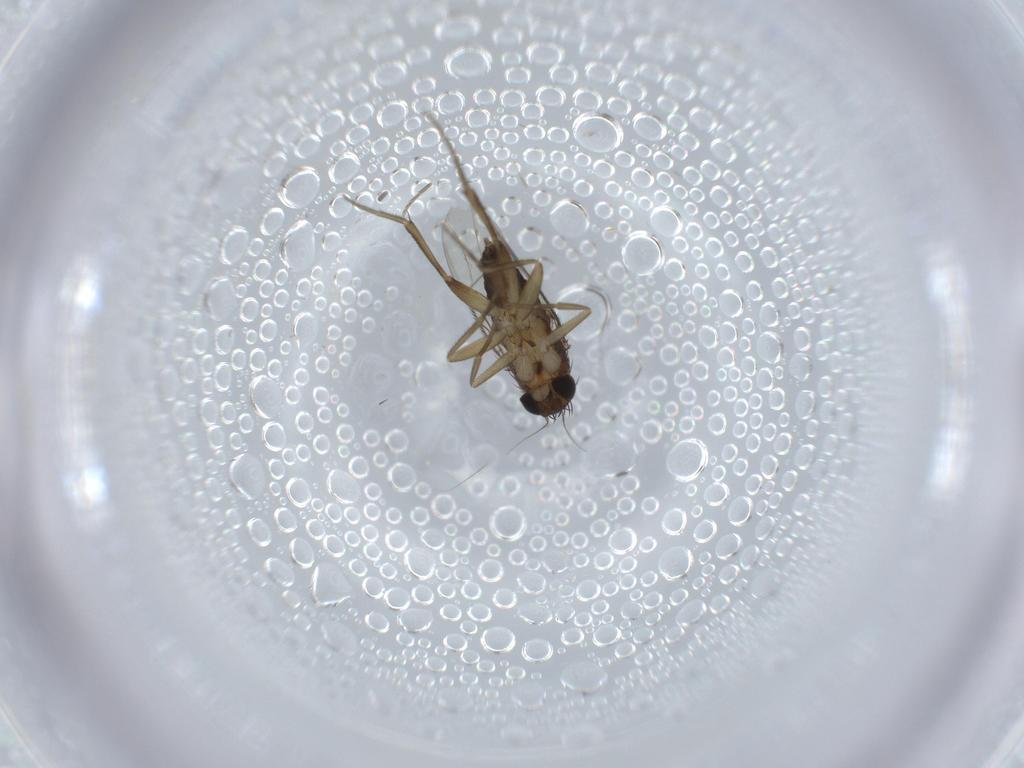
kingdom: Animalia
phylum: Arthropoda
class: Insecta
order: Diptera
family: Phoridae
